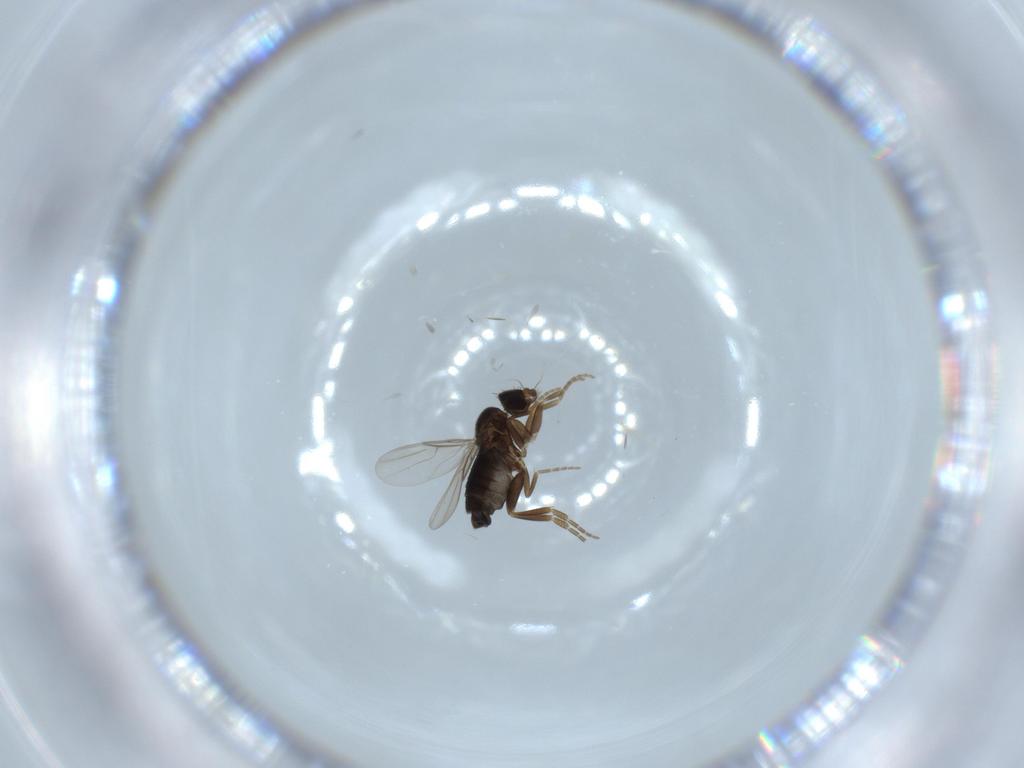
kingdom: Animalia
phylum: Arthropoda
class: Insecta
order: Diptera
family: Phoridae
